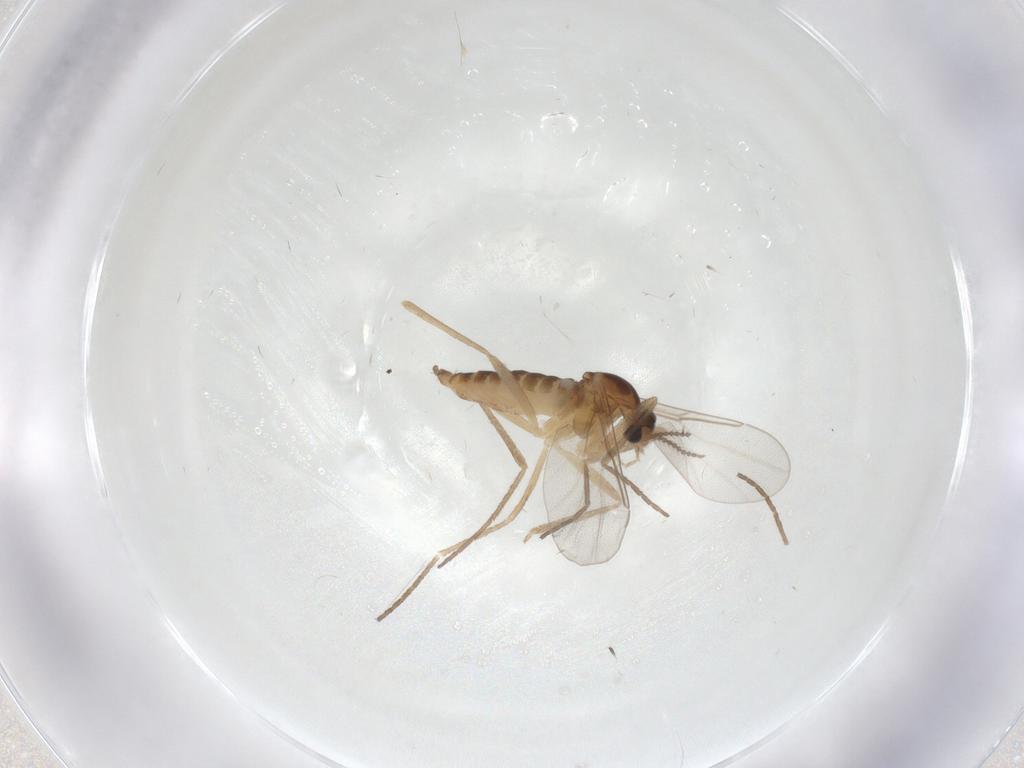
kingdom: Animalia
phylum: Arthropoda
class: Insecta
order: Diptera
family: Cecidomyiidae
